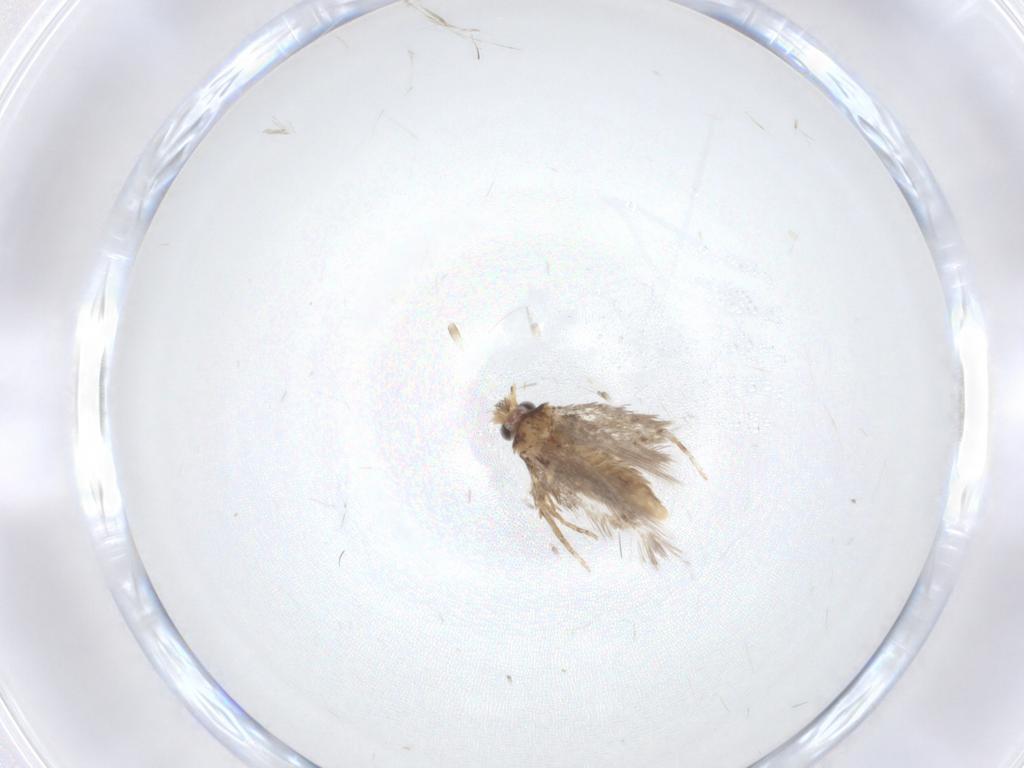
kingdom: Animalia
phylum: Arthropoda
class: Insecta
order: Lepidoptera
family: Nepticulidae
